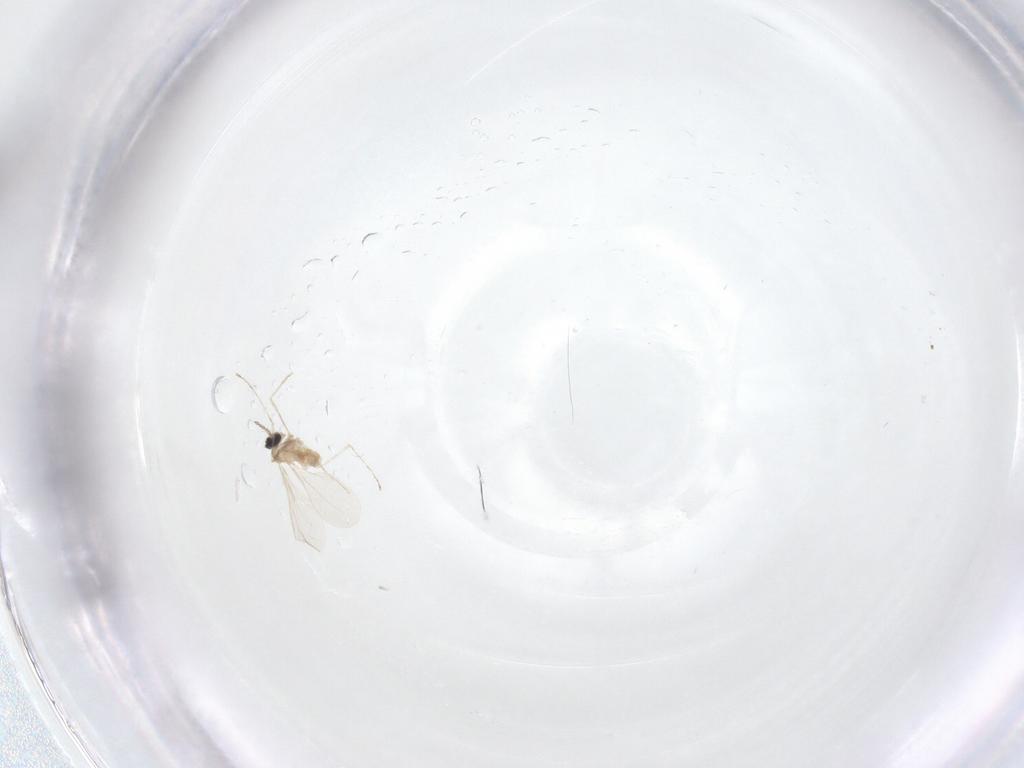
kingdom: Animalia
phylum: Arthropoda
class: Insecta
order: Diptera
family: Cecidomyiidae
